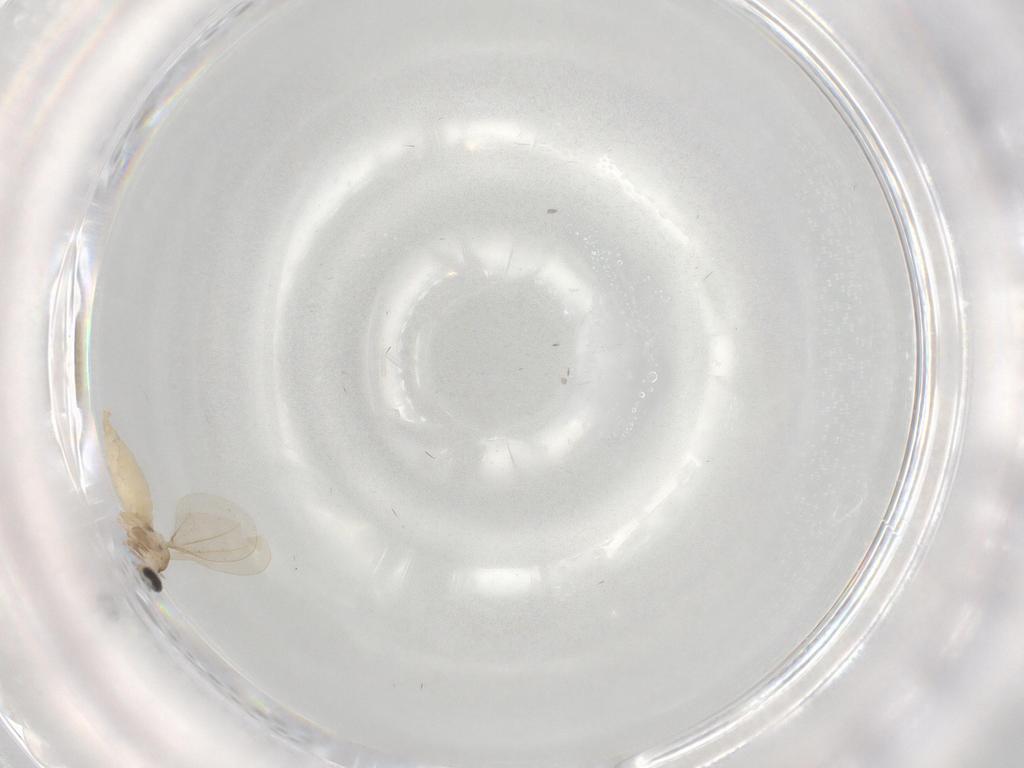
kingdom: Animalia
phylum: Arthropoda
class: Insecta
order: Diptera
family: Cecidomyiidae
